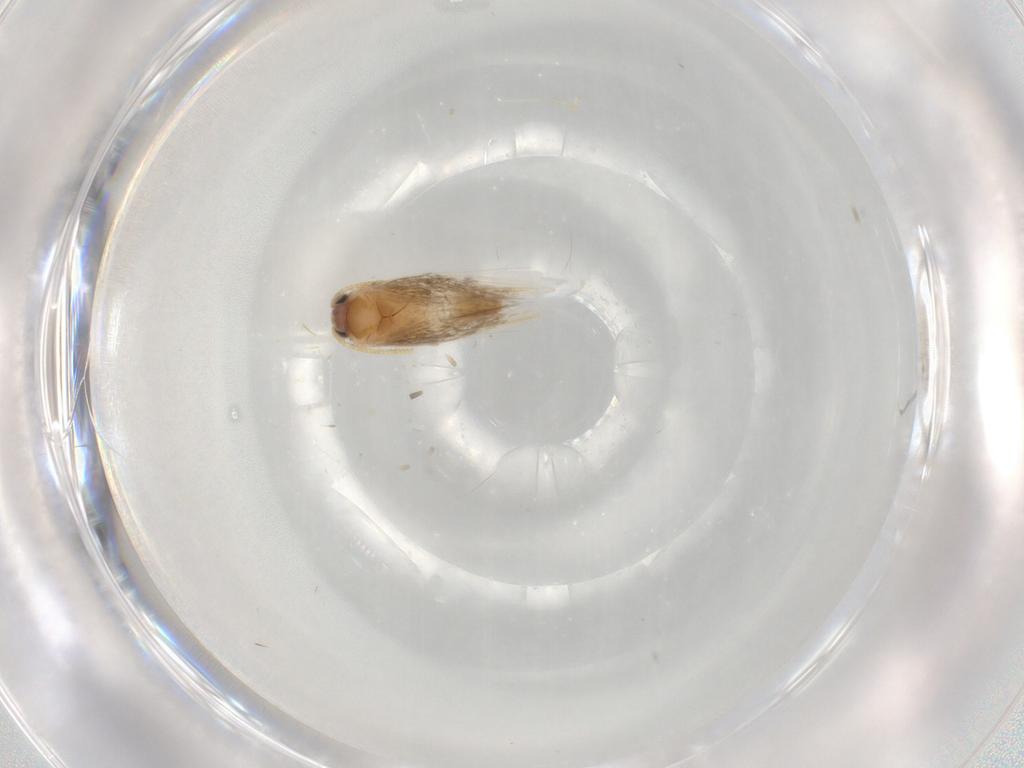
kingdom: Animalia
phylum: Arthropoda
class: Insecta
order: Lepidoptera
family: Nepticulidae
